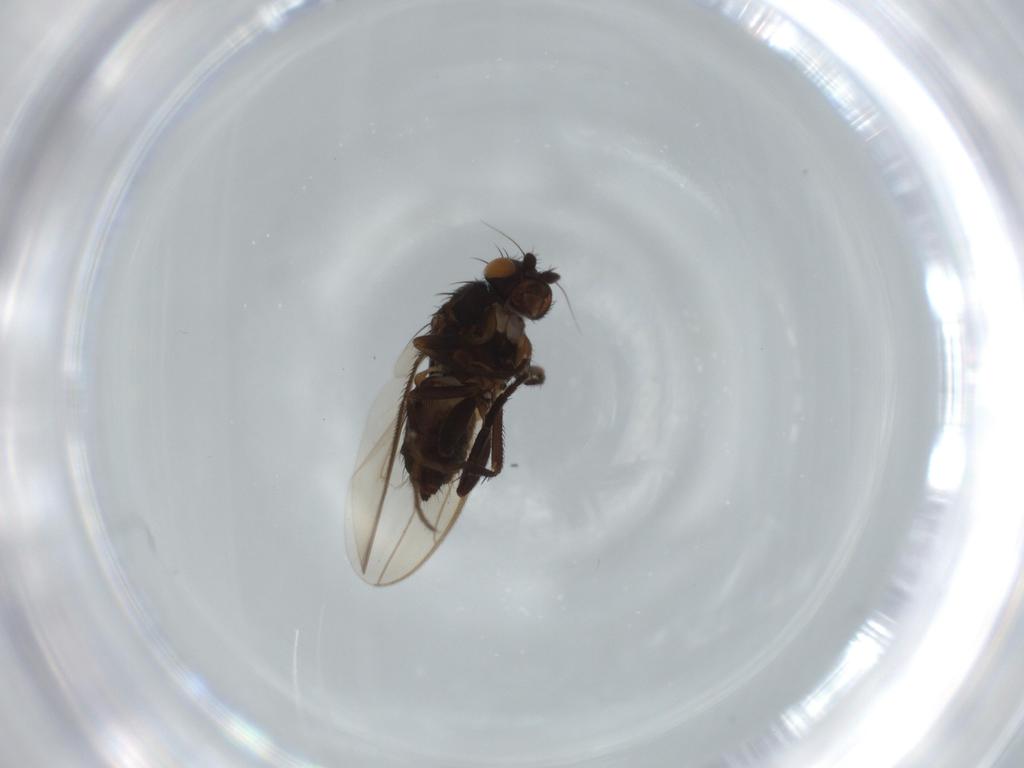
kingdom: Animalia
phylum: Arthropoda
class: Insecta
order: Diptera
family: Sphaeroceridae
